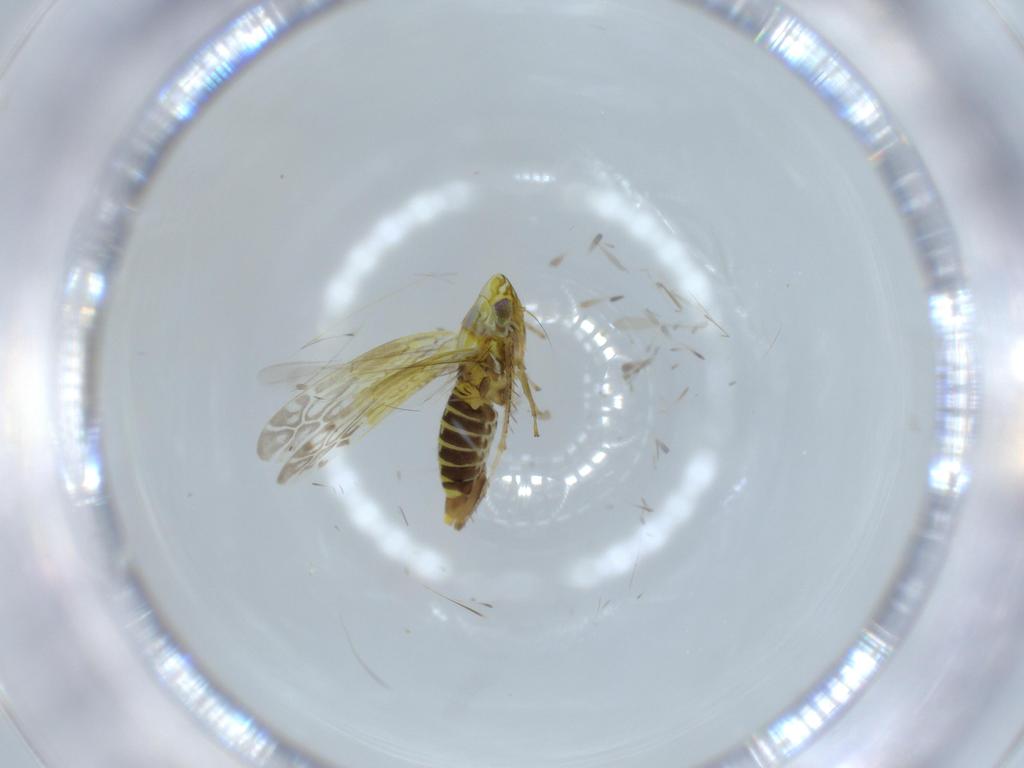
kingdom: Animalia
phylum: Arthropoda
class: Insecta
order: Hemiptera
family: Cicadellidae
